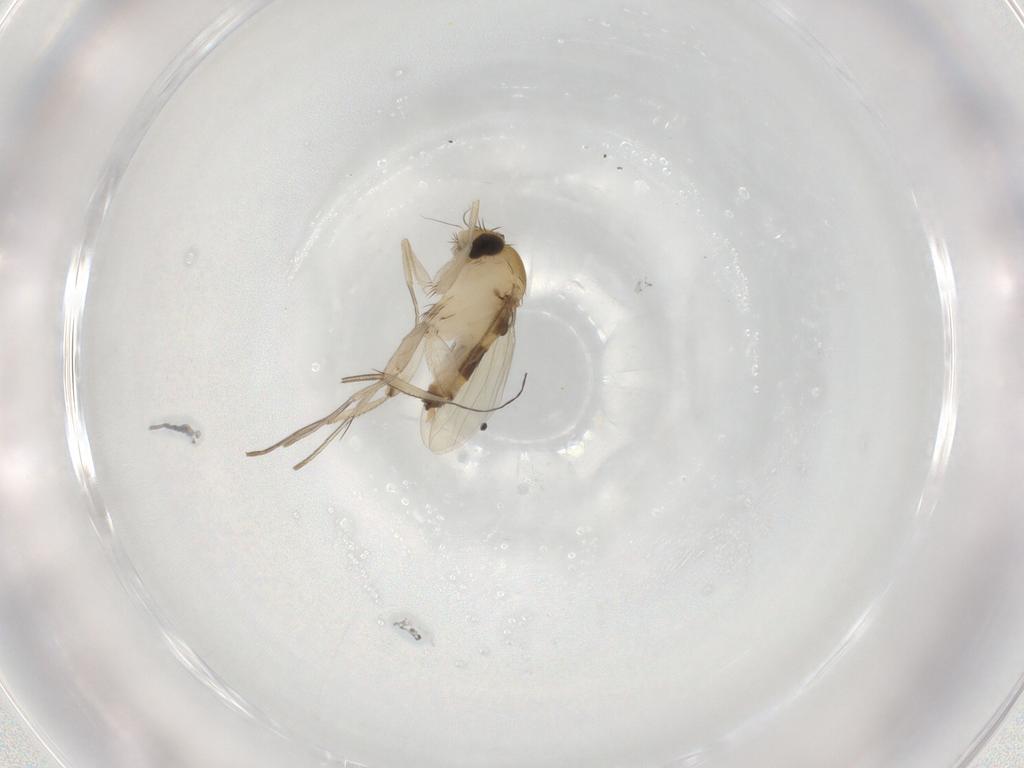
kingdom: Animalia
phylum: Arthropoda
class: Insecta
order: Diptera
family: Phoridae
